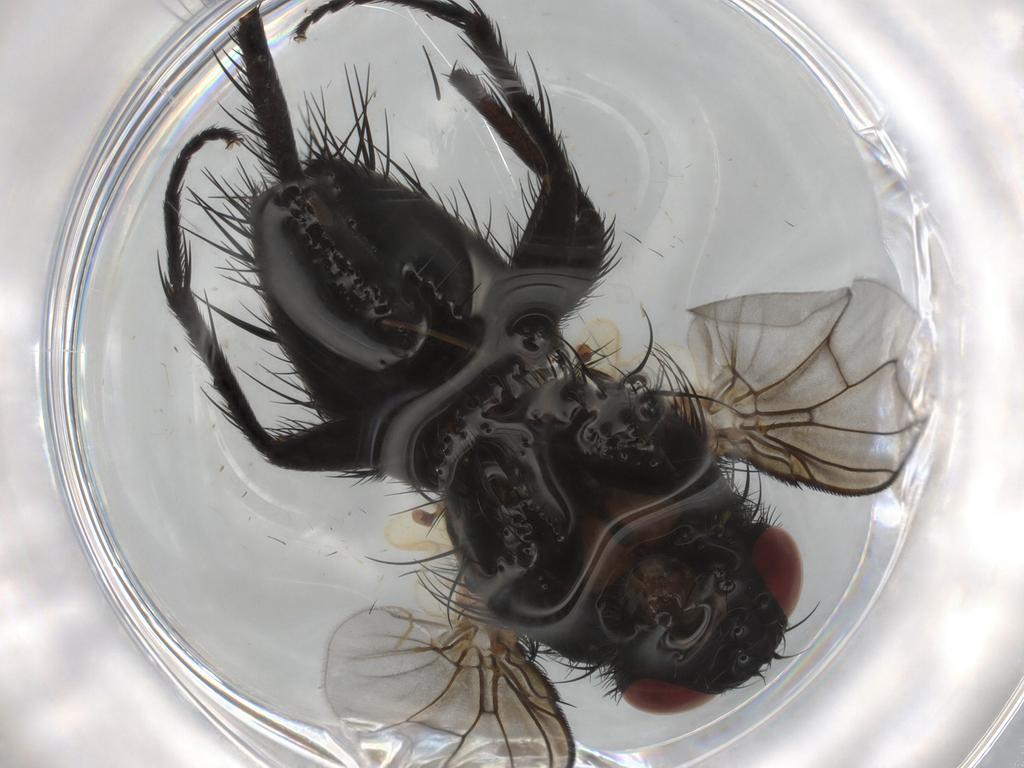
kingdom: Animalia
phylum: Arthropoda
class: Insecta
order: Diptera
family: Tachinidae
